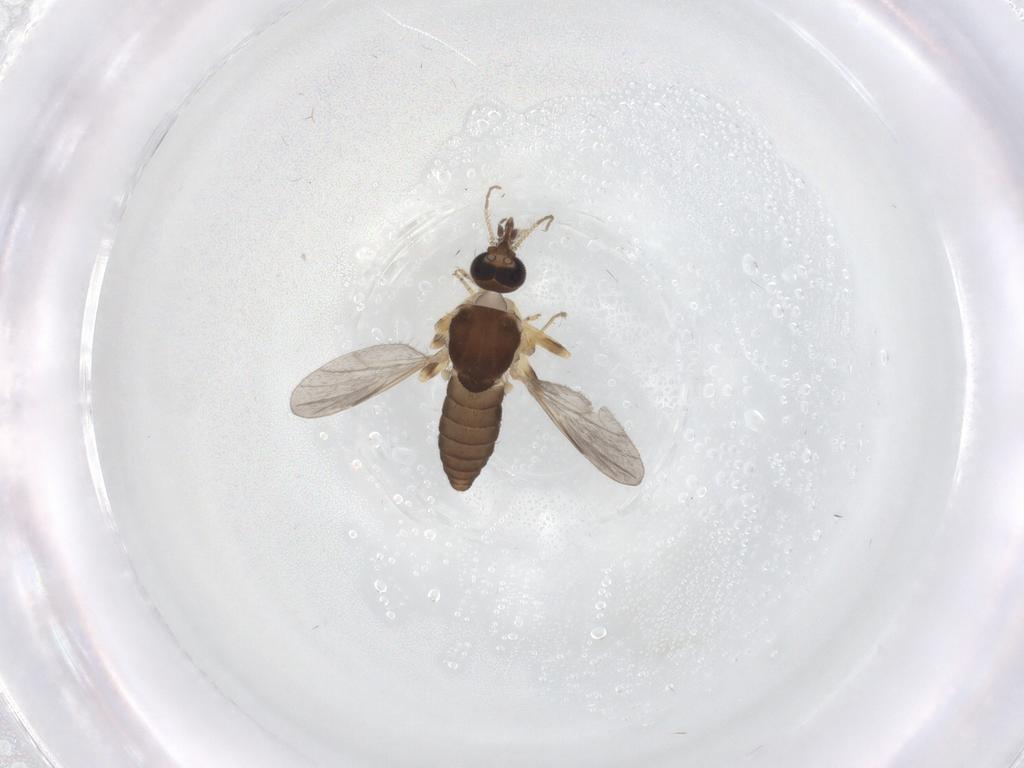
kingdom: Animalia
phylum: Arthropoda
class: Insecta
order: Diptera
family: Ceratopogonidae
